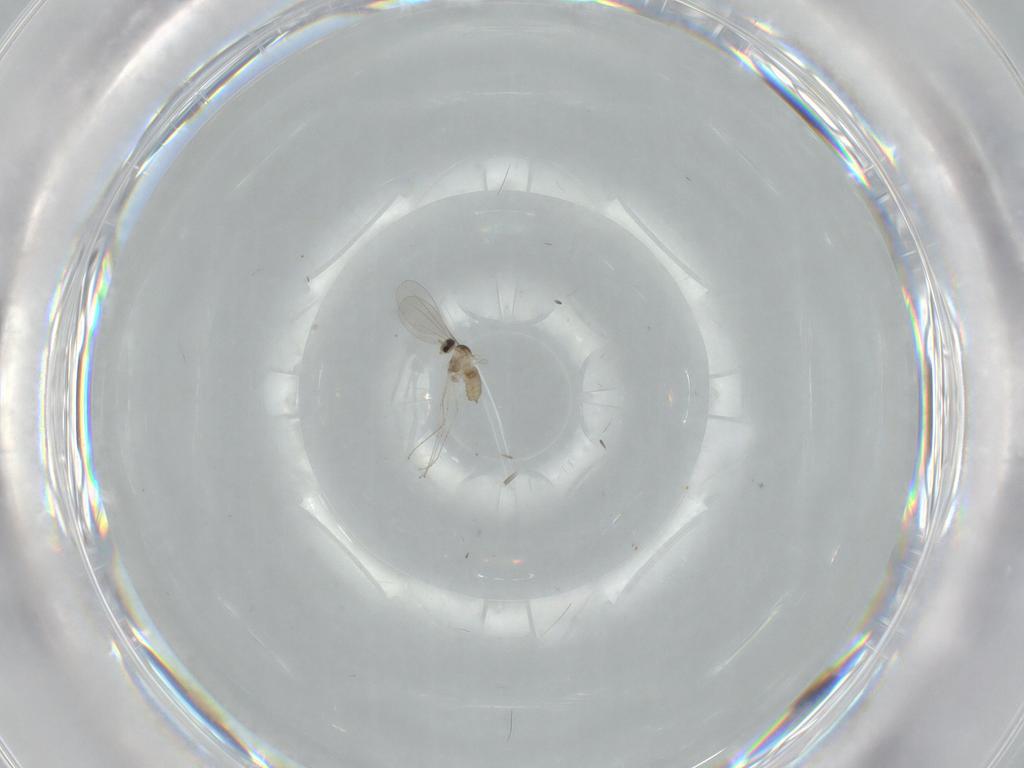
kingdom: Animalia
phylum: Arthropoda
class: Insecta
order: Diptera
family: Cecidomyiidae
